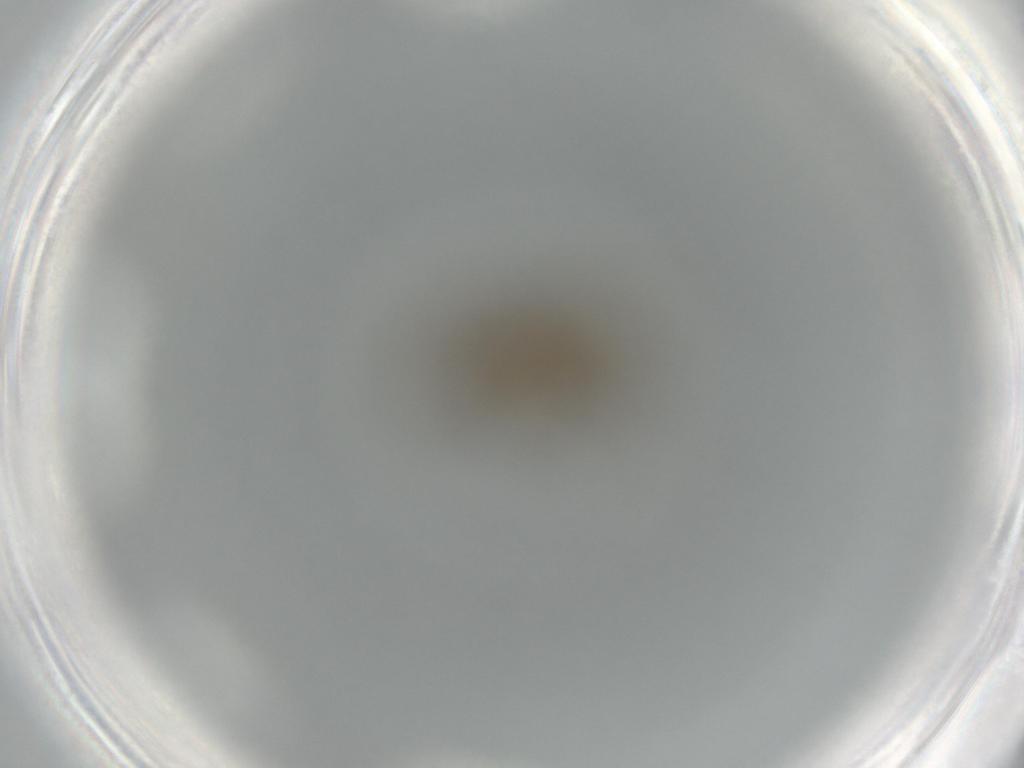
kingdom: Animalia
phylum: Arthropoda
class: Insecta
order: Diptera
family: Phoridae
